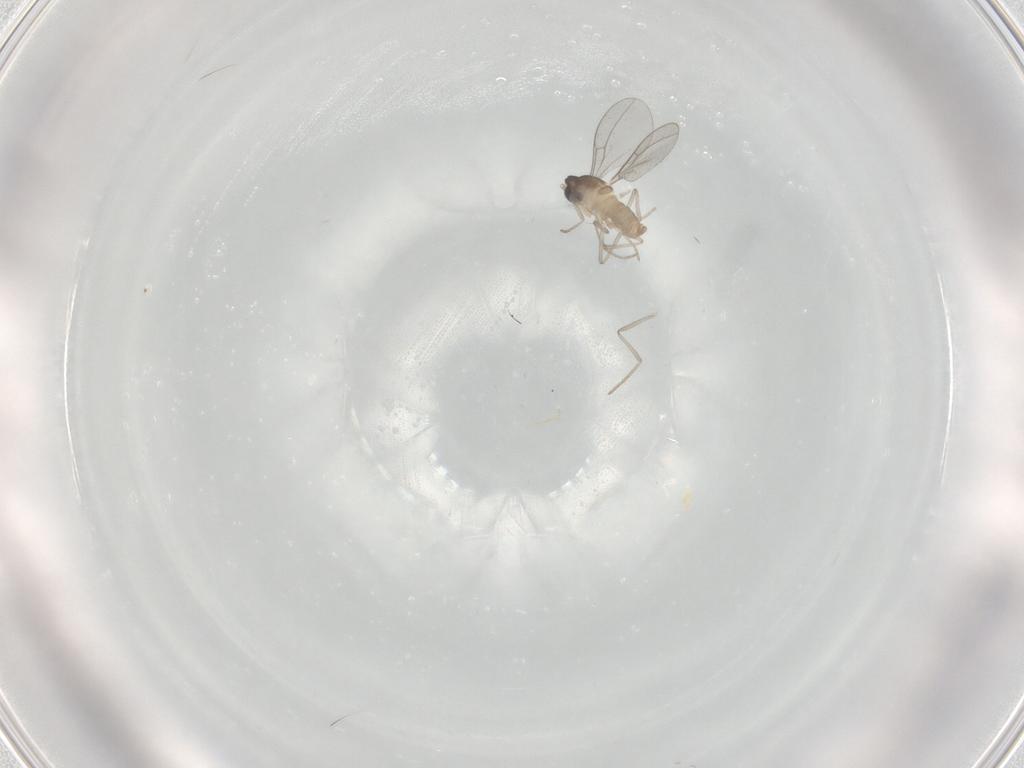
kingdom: Animalia
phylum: Arthropoda
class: Insecta
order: Diptera
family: Cecidomyiidae
